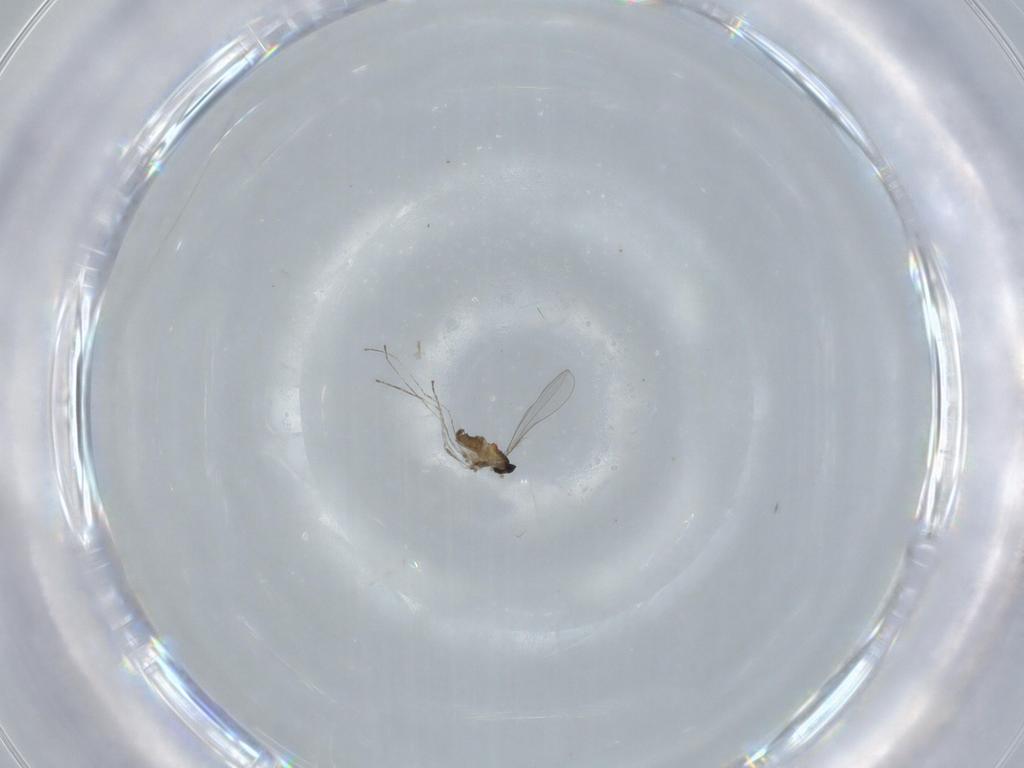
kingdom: Animalia
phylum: Arthropoda
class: Insecta
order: Diptera
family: Cecidomyiidae
